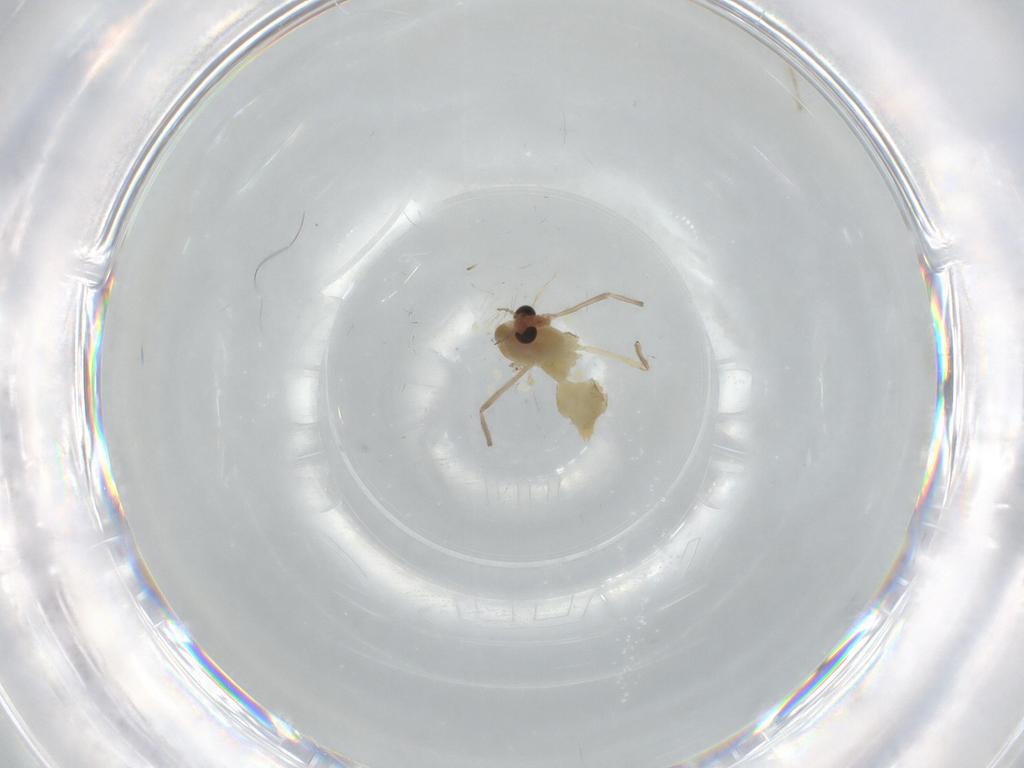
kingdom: Animalia
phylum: Arthropoda
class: Insecta
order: Diptera
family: Chironomidae
